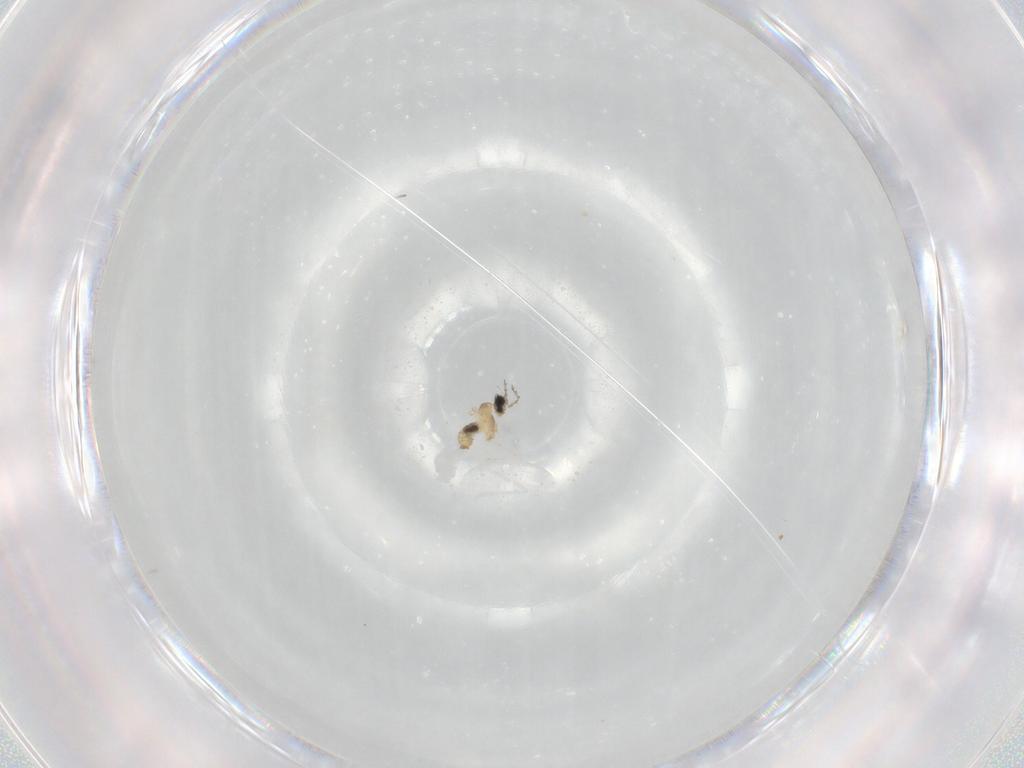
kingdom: Animalia
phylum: Arthropoda
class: Insecta
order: Diptera
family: Cecidomyiidae
